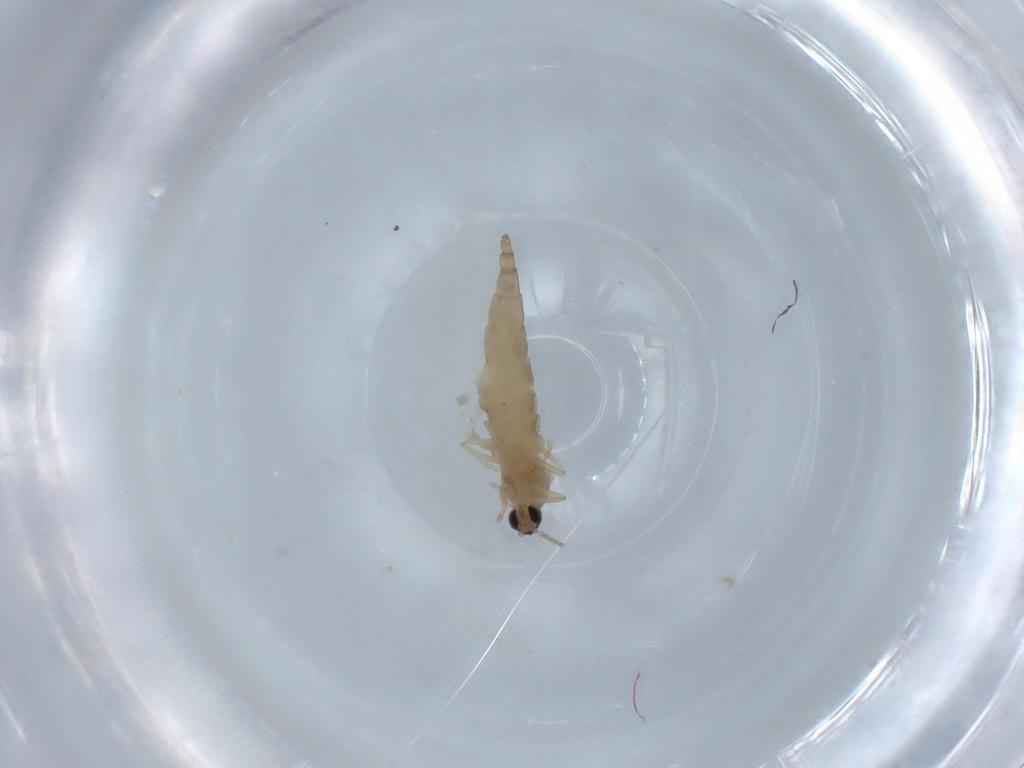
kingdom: Animalia
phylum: Arthropoda
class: Insecta
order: Diptera
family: Cecidomyiidae
